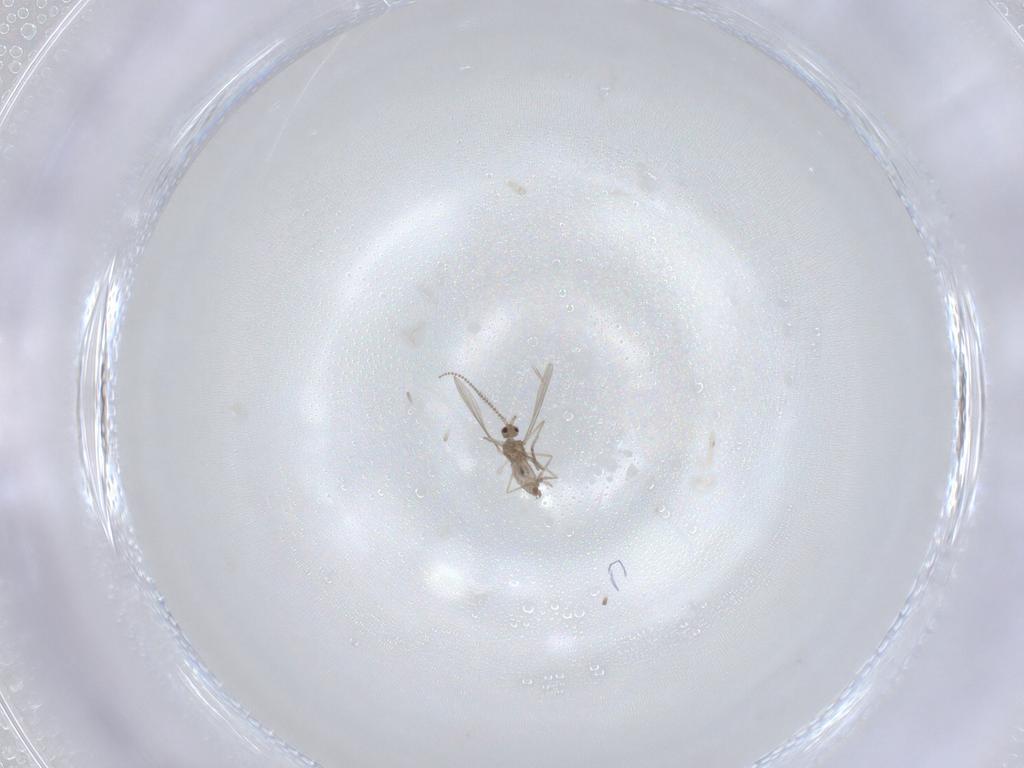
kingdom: Animalia
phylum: Arthropoda
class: Insecta
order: Diptera
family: Cecidomyiidae
